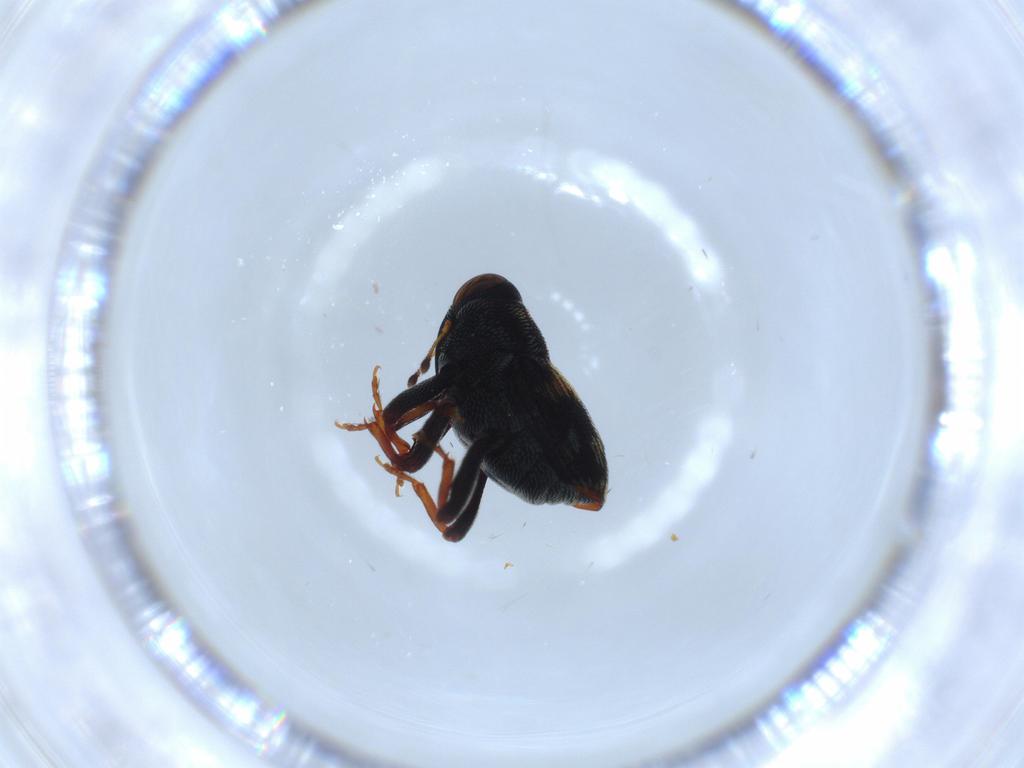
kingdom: Animalia
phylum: Arthropoda
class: Insecta
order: Coleoptera
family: Curculionidae
